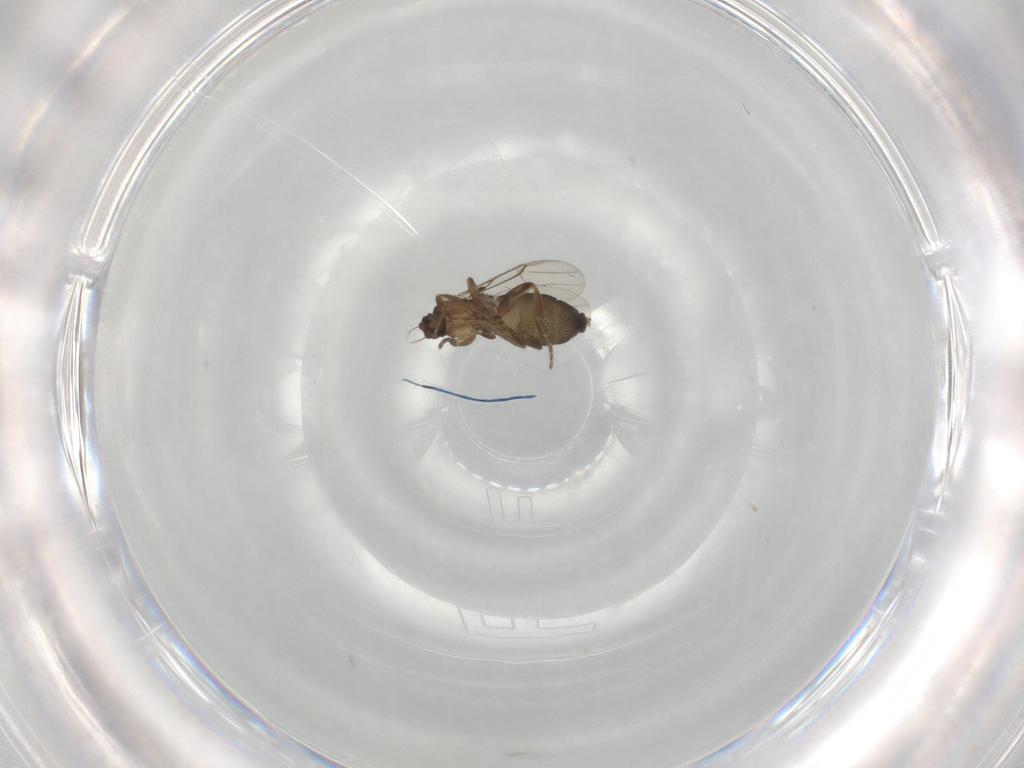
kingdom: Animalia
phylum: Arthropoda
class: Insecta
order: Diptera
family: Phoridae
